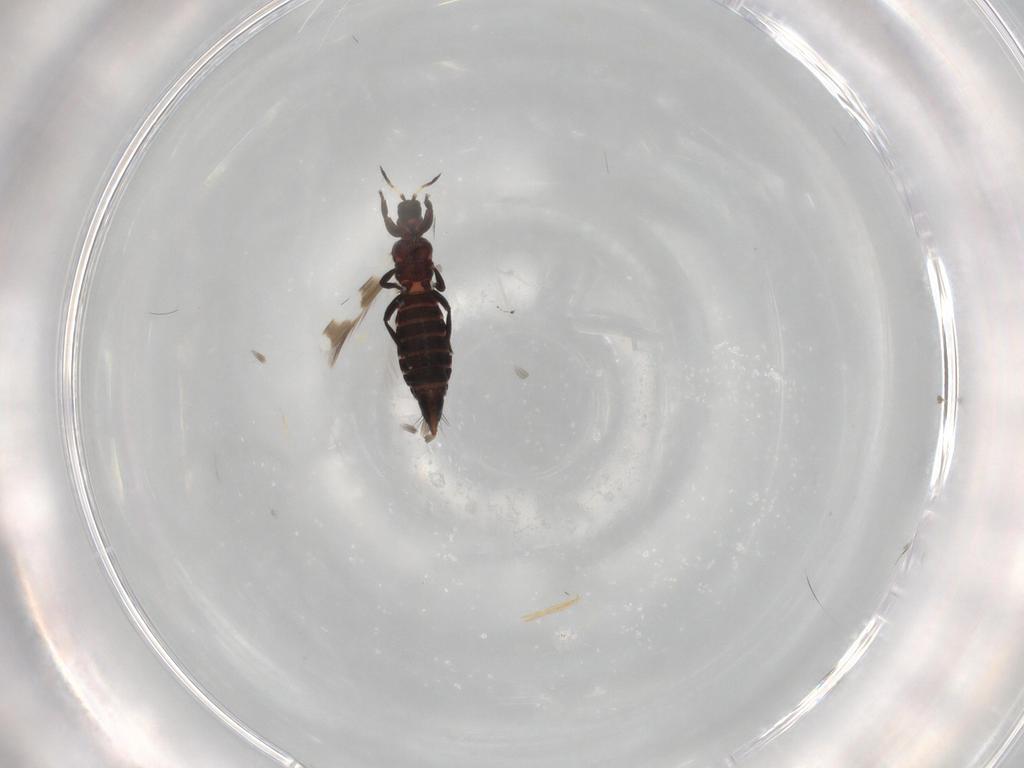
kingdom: Animalia
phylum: Arthropoda
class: Insecta
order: Thysanoptera
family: Aeolothripidae
